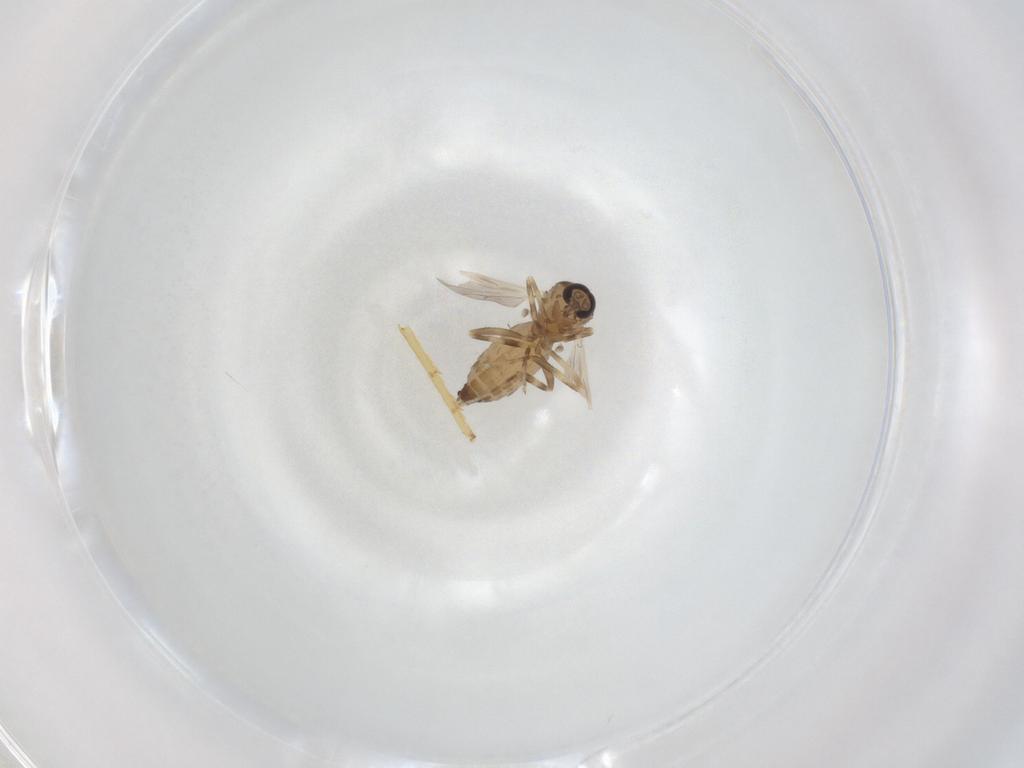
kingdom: Animalia
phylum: Arthropoda
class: Insecta
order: Diptera
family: Ceratopogonidae
